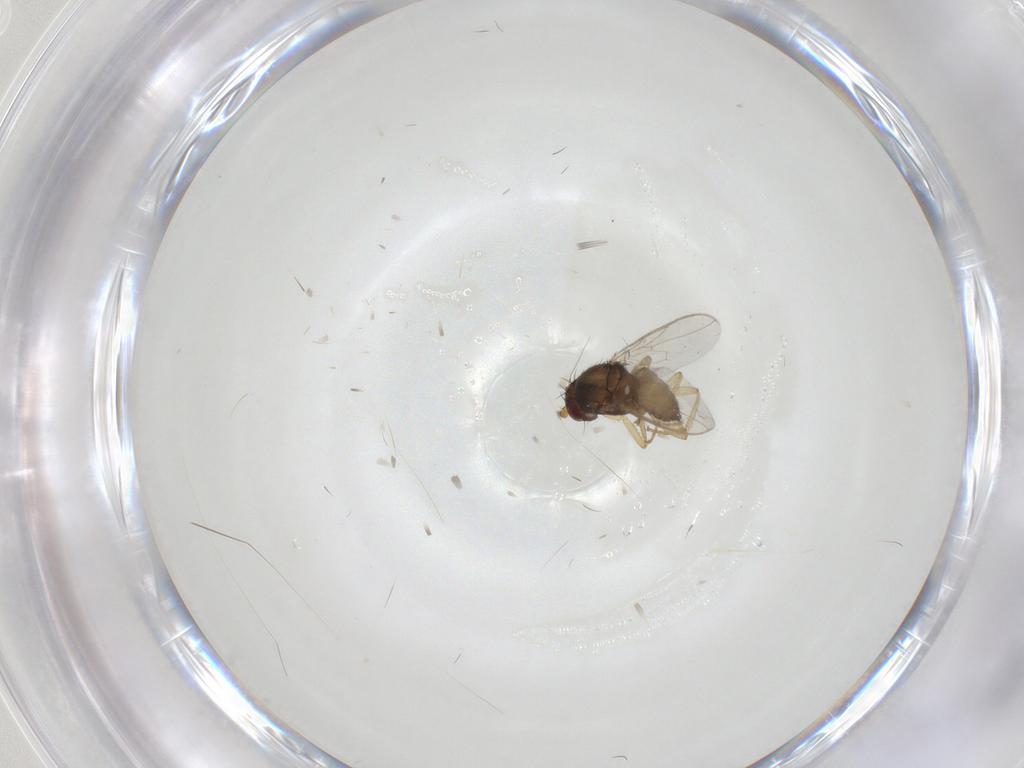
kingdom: Animalia
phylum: Arthropoda
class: Insecta
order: Diptera
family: Sphaeroceridae
